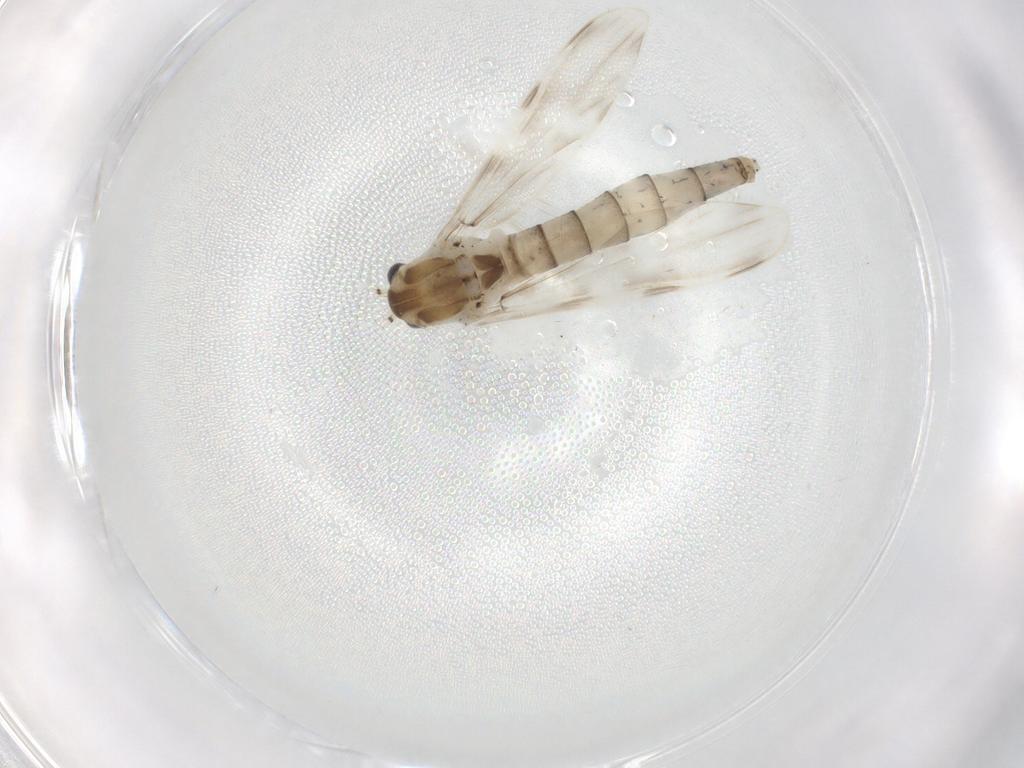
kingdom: Animalia
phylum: Arthropoda
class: Insecta
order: Diptera
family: Chaoboridae
